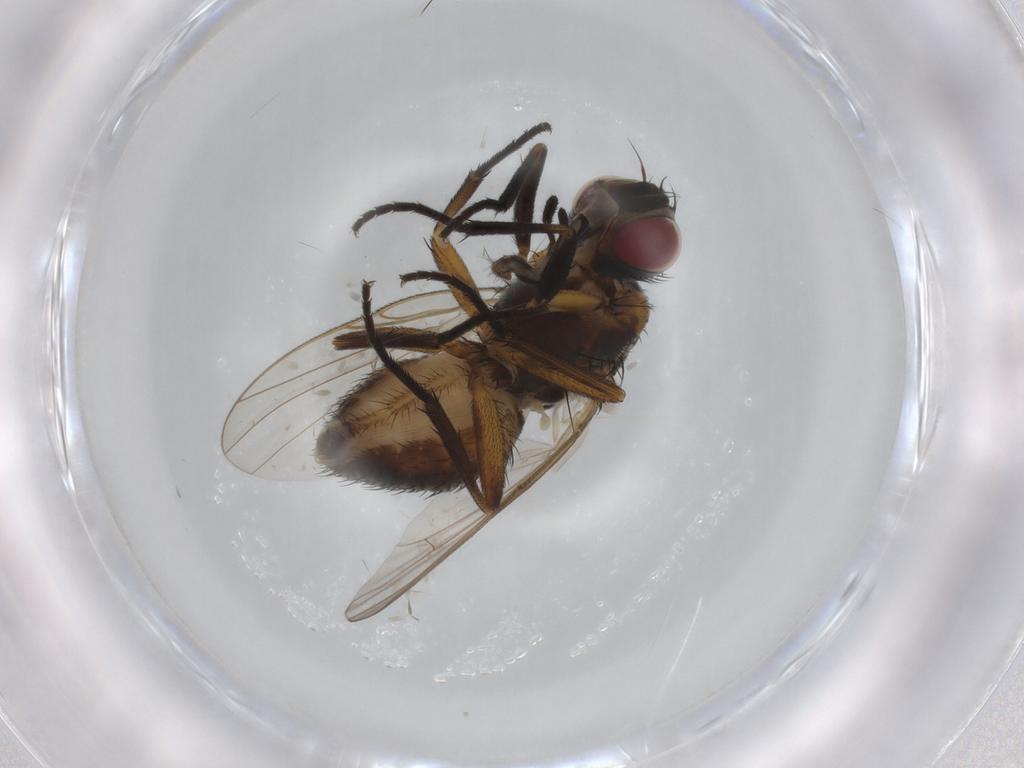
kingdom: Animalia
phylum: Arthropoda
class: Insecta
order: Diptera
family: Muscidae
